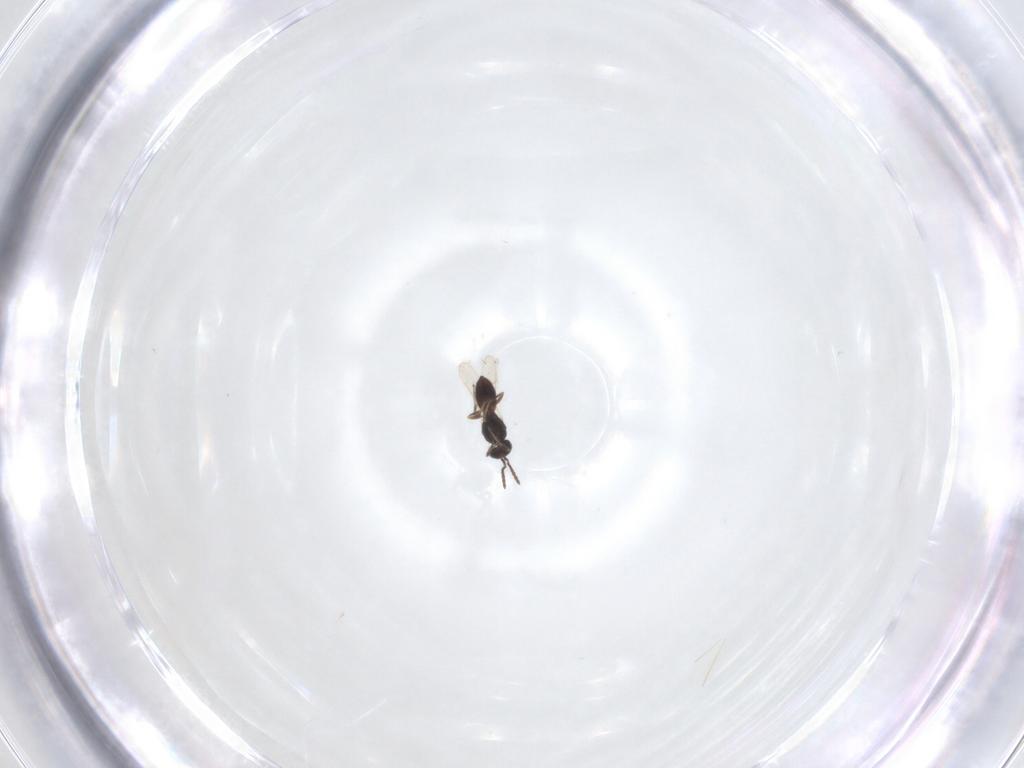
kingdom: Animalia
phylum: Arthropoda
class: Insecta
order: Hymenoptera
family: Scelionidae
